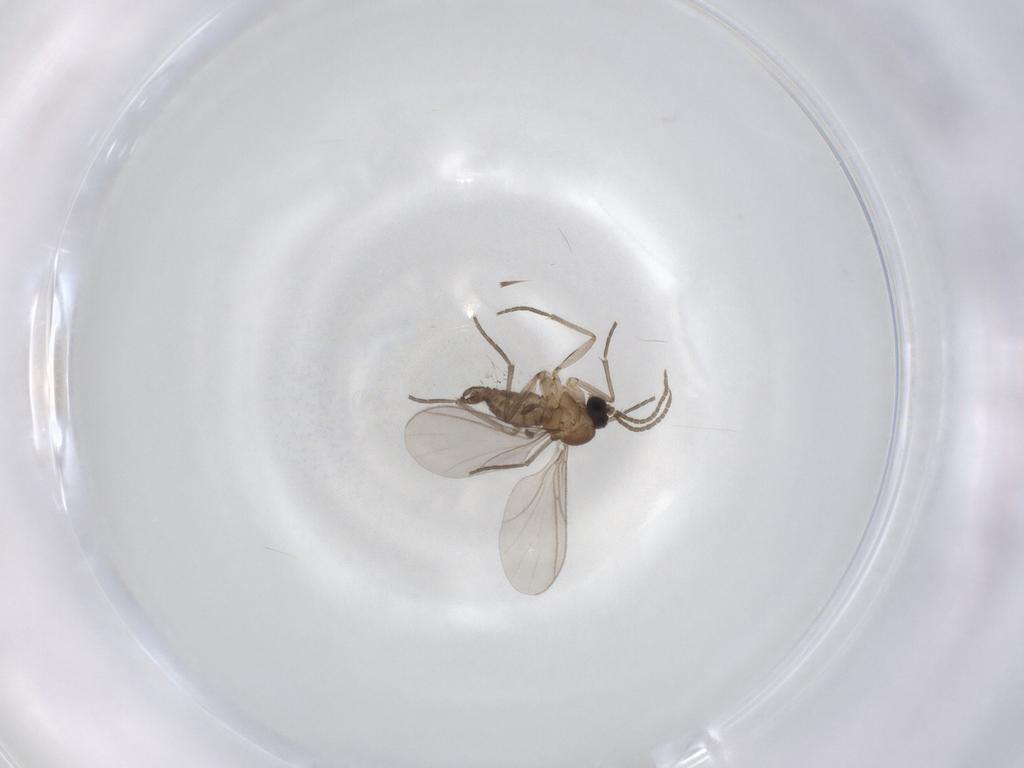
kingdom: Animalia
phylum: Arthropoda
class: Insecta
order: Diptera
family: Sciaridae
